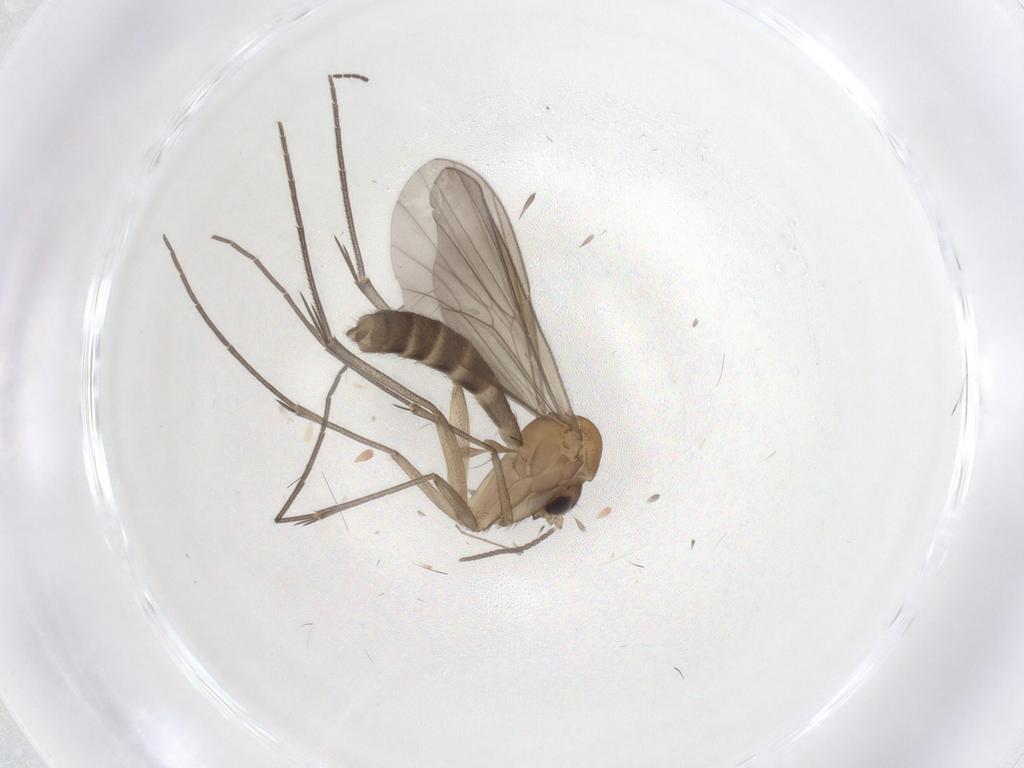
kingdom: Animalia
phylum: Arthropoda
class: Insecta
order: Diptera
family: Mycetophilidae
